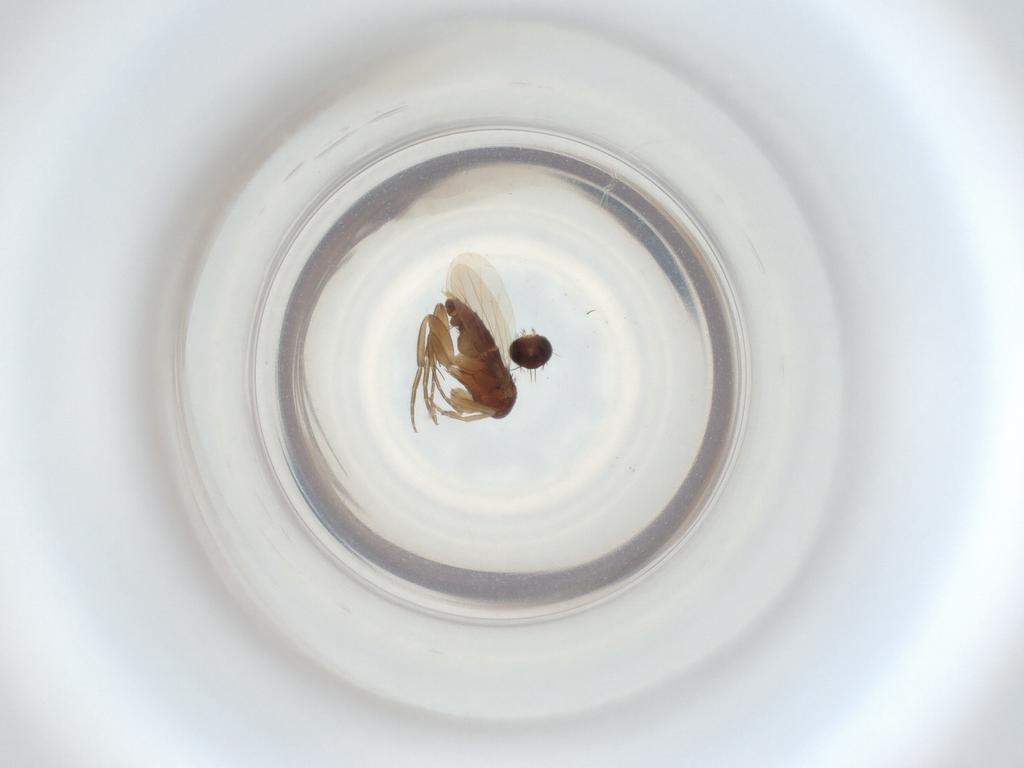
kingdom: Animalia
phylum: Arthropoda
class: Insecta
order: Diptera
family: Phoridae
